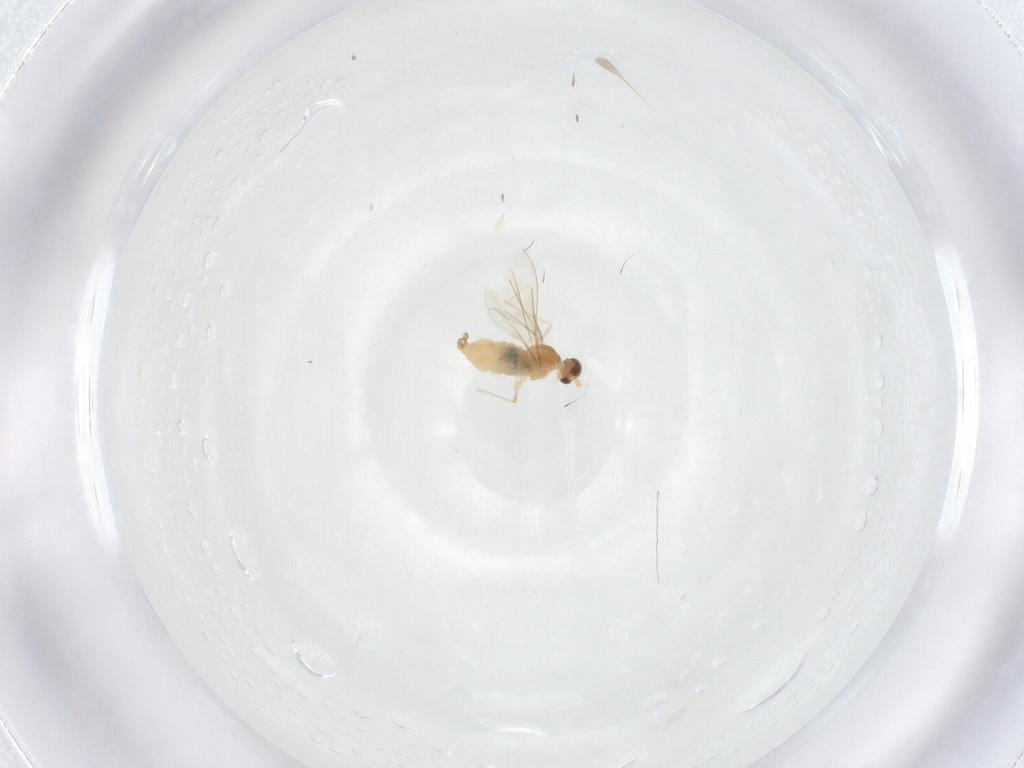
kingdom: Animalia
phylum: Arthropoda
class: Insecta
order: Diptera
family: Cecidomyiidae
